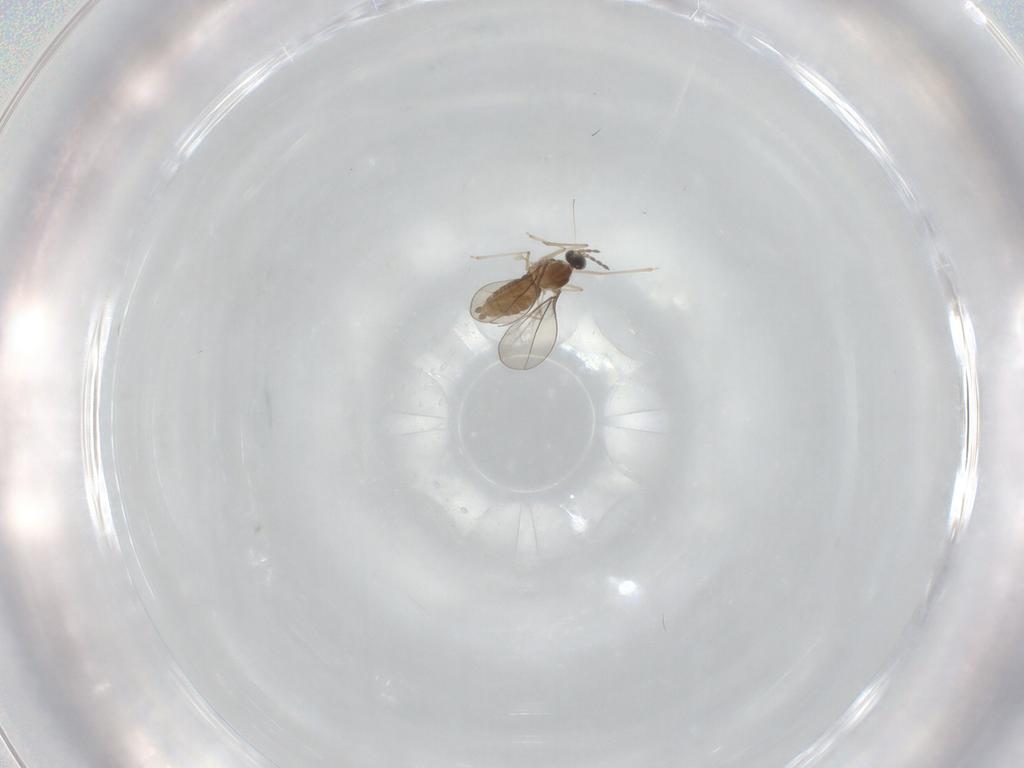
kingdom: Animalia
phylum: Arthropoda
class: Insecta
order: Diptera
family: Cecidomyiidae
